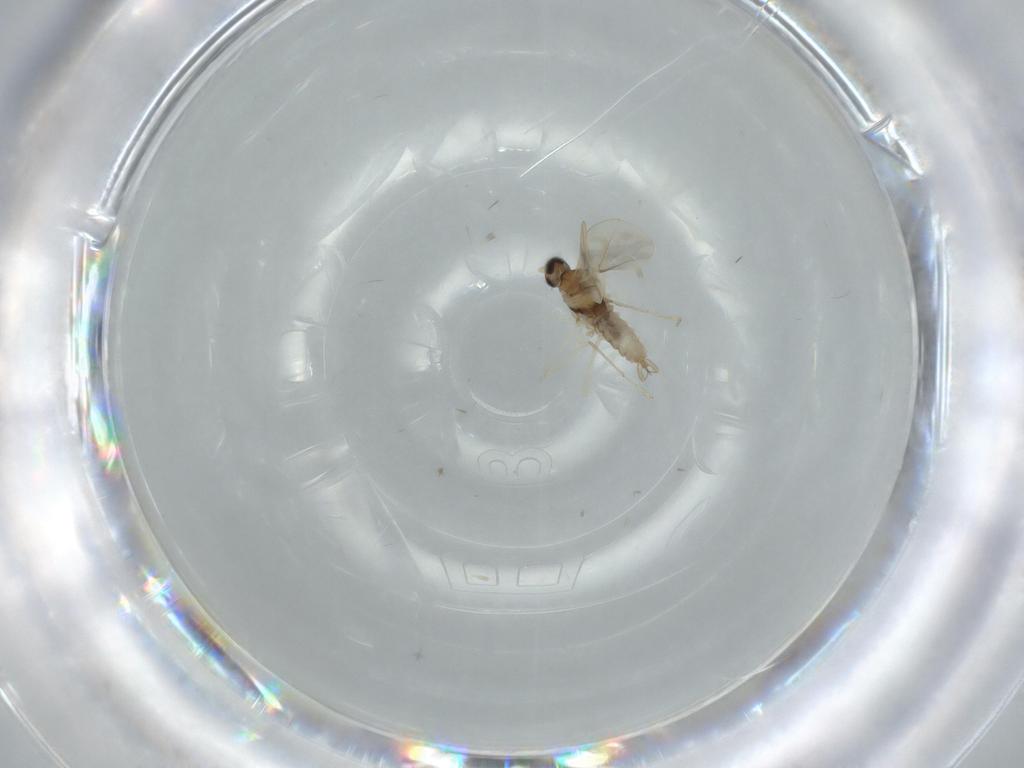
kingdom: Animalia
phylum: Arthropoda
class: Insecta
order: Diptera
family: Cecidomyiidae
